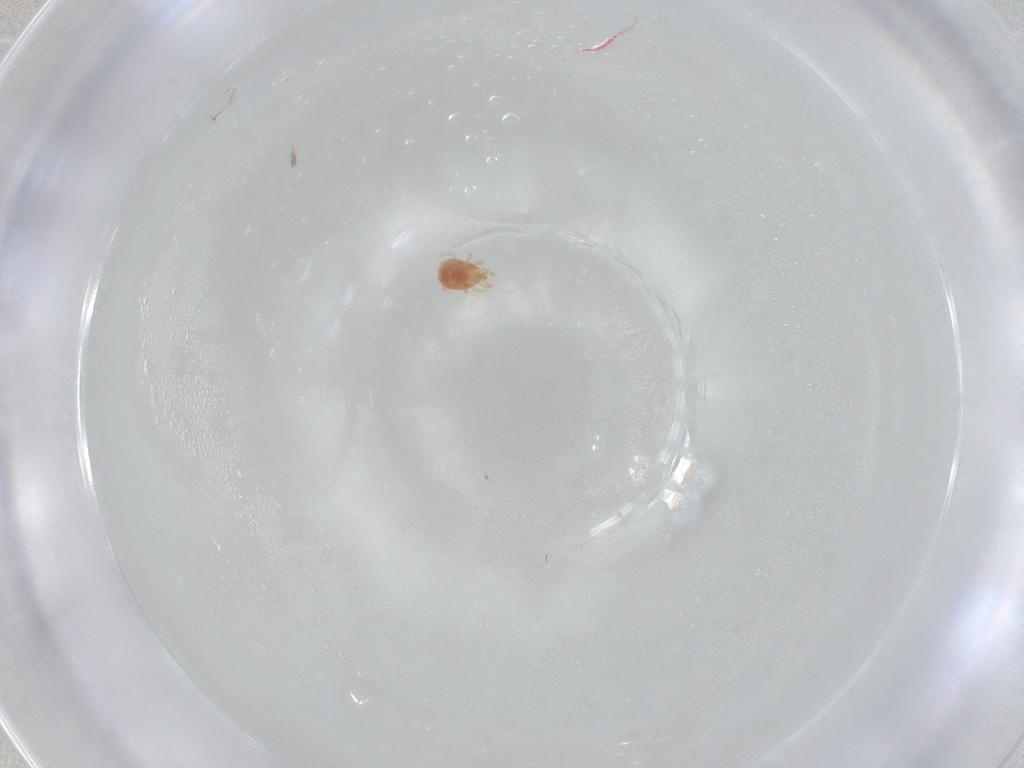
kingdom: Animalia
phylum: Arthropoda
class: Arachnida
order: Mesostigmata
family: Phytoseiidae
